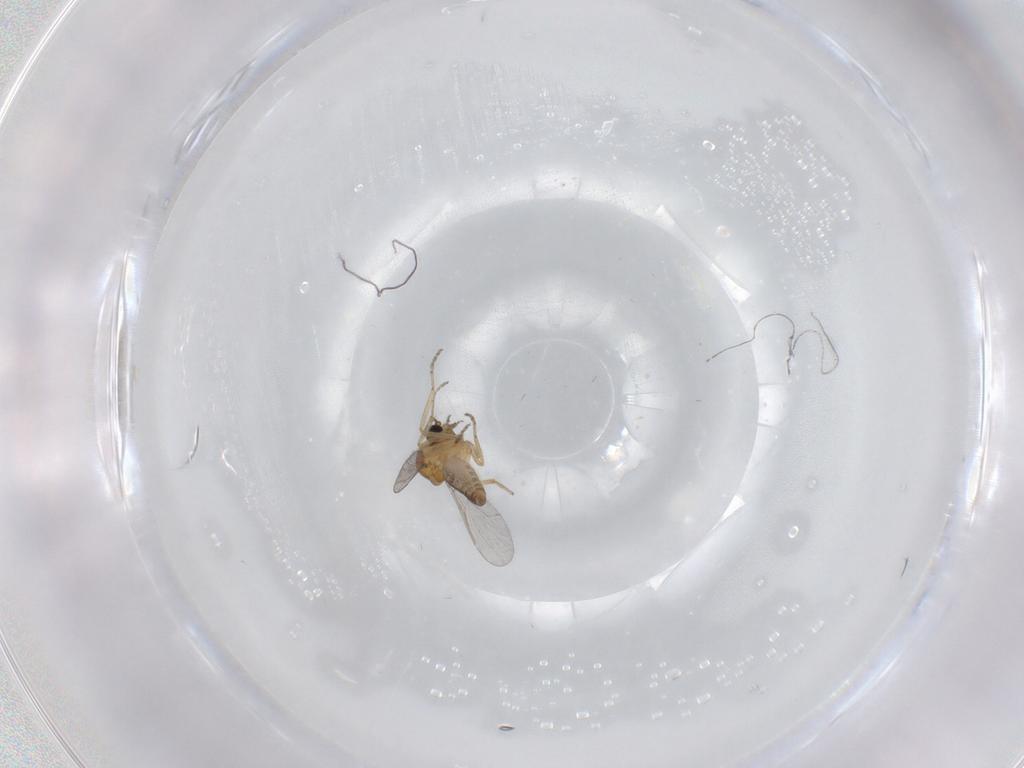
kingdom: Animalia
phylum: Arthropoda
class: Insecta
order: Diptera
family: Ceratopogonidae
